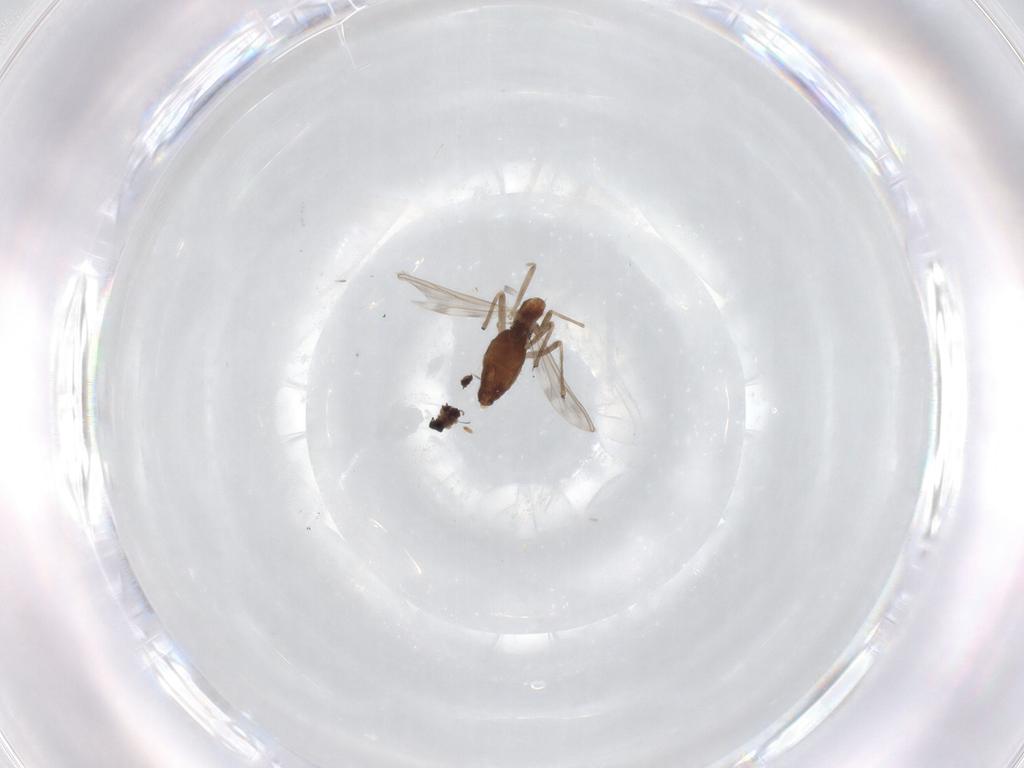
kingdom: Animalia
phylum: Arthropoda
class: Insecta
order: Diptera
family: Chironomidae
